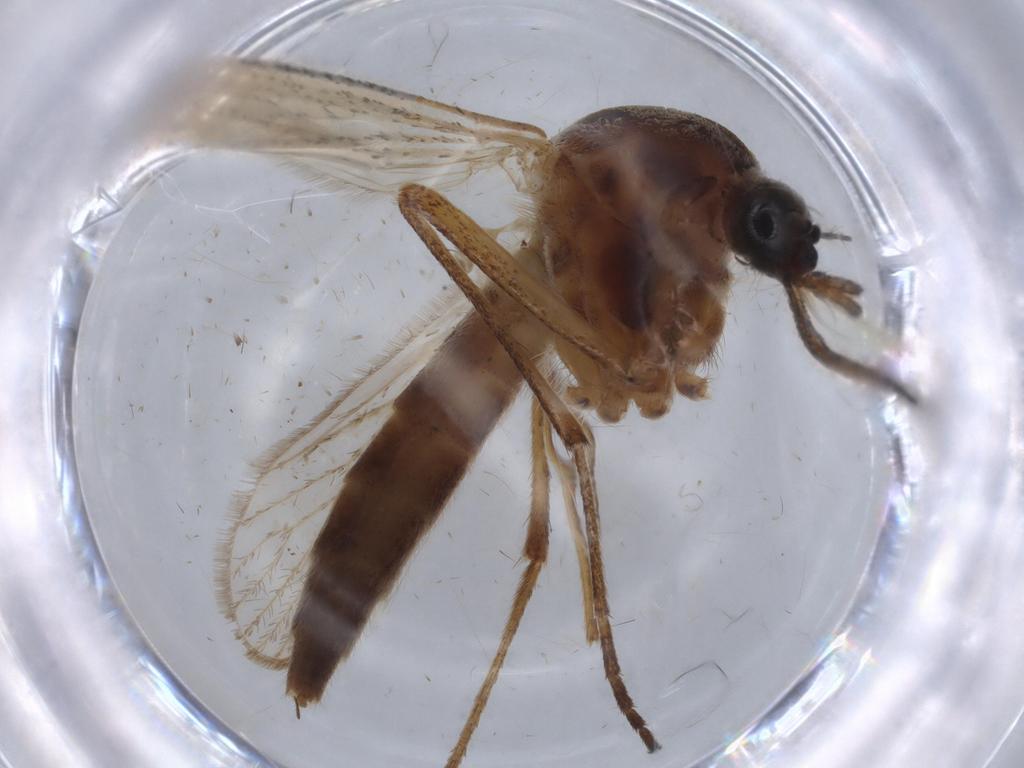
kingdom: Animalia
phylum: Arthropoda
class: Insecta
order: Diptera
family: Culicidae
